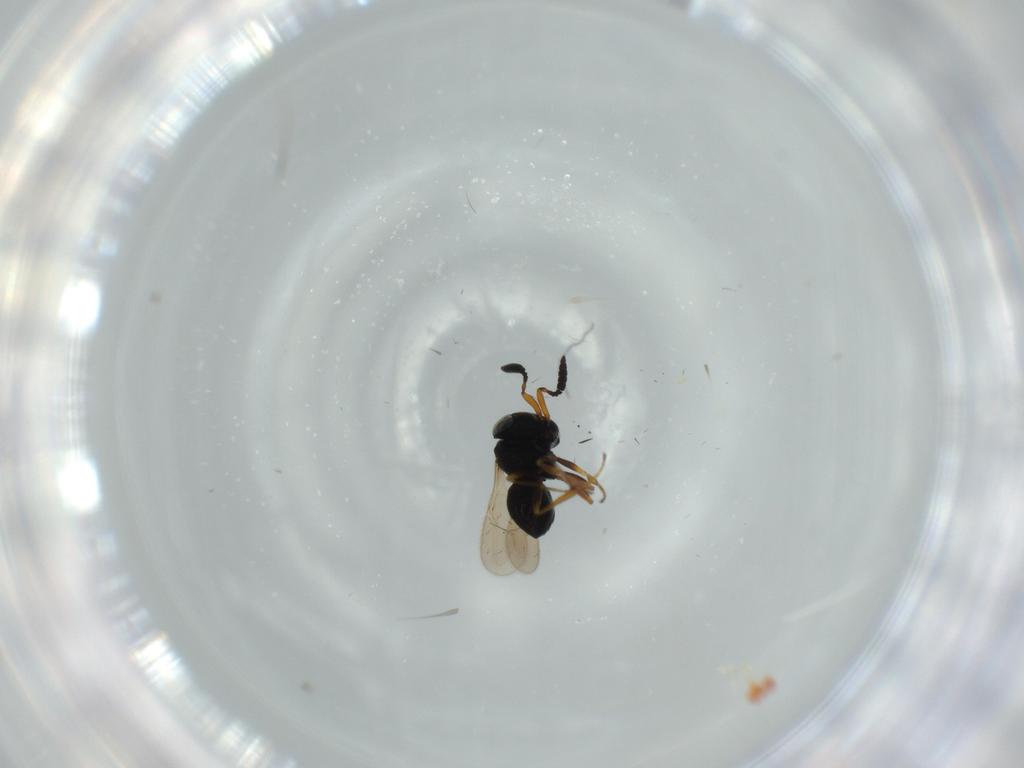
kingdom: Animalia
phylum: Arthropoda
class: Insecta
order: Hymenoptera
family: Scelionidae
